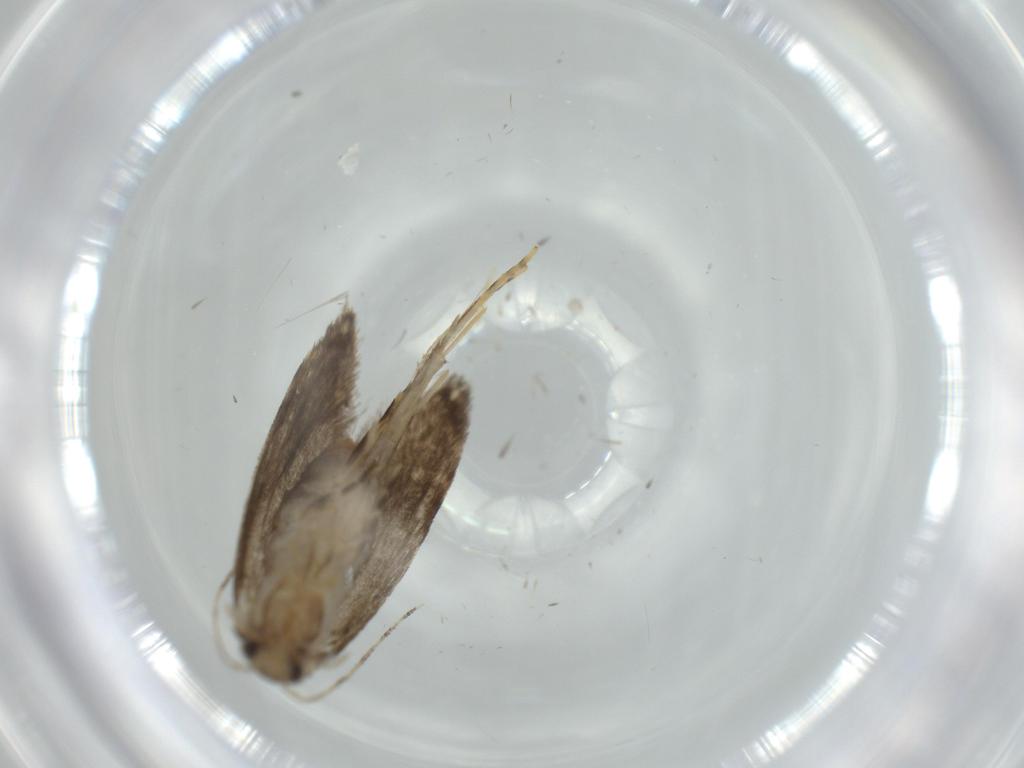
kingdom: Animalia
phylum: Arthropoda
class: Insecta
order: Lepidoptera
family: Tineidae
